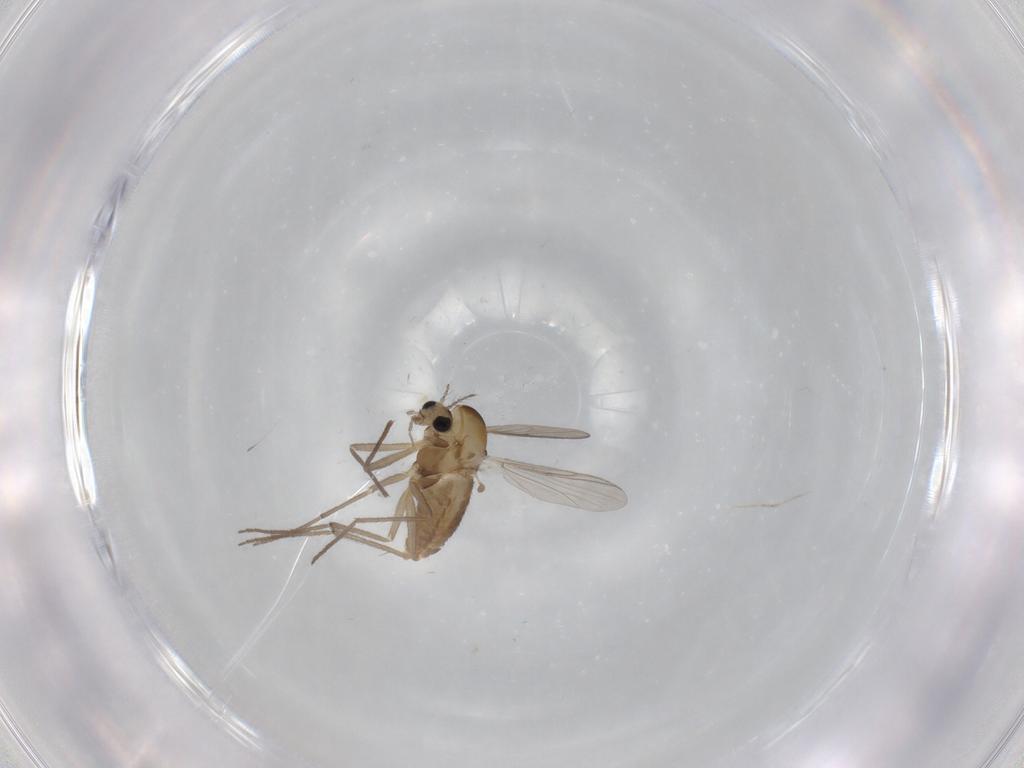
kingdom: Animalia
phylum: Arthropoda
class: Insecta
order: Diptera
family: Chironomidae
